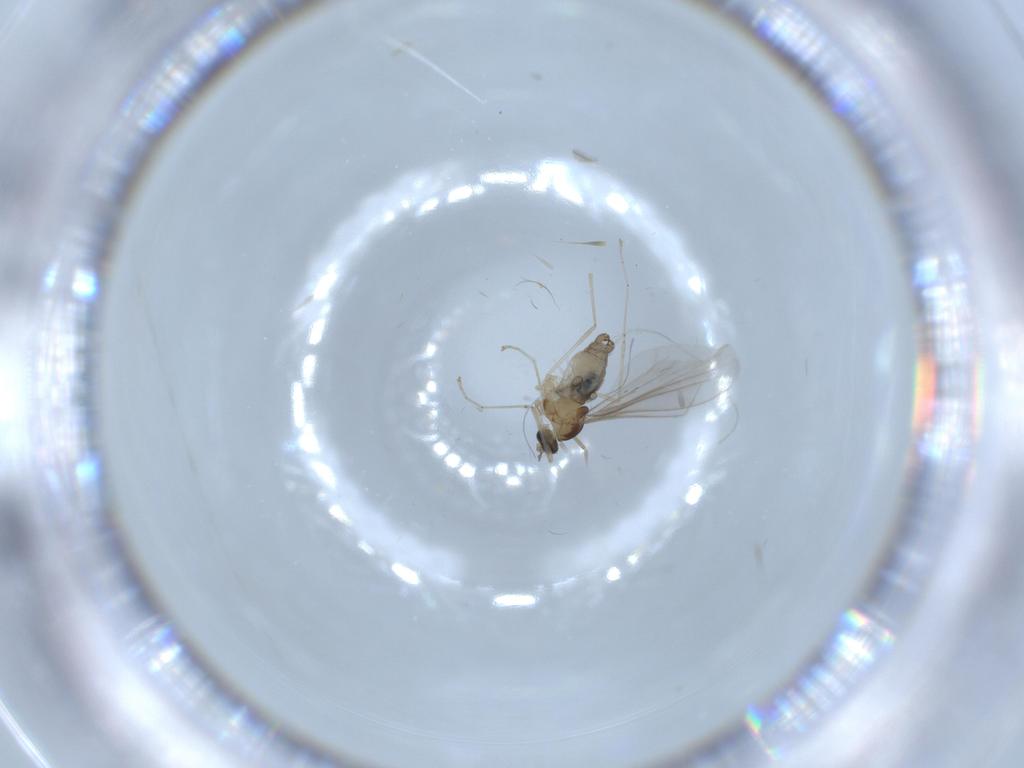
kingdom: Animalia
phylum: Arthropoda
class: Insecta
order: Diptera
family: Cecidomyiidae
